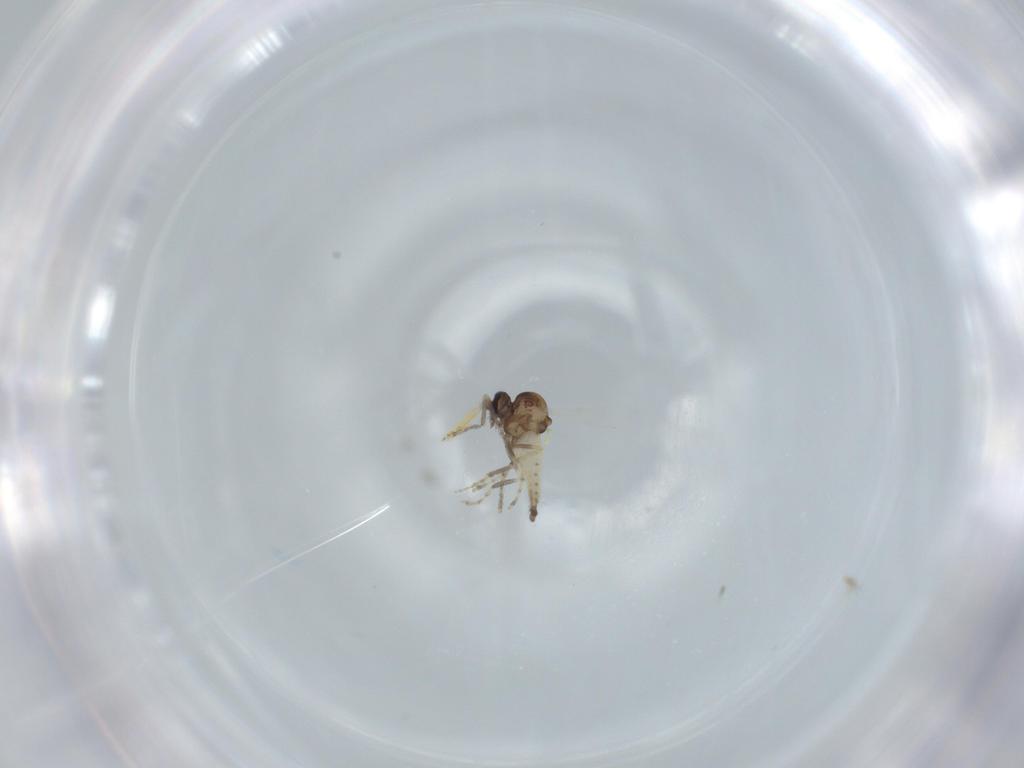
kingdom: Animalia
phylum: Arthropoda
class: Insecta
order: Diptera
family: Ceratopogonidae
